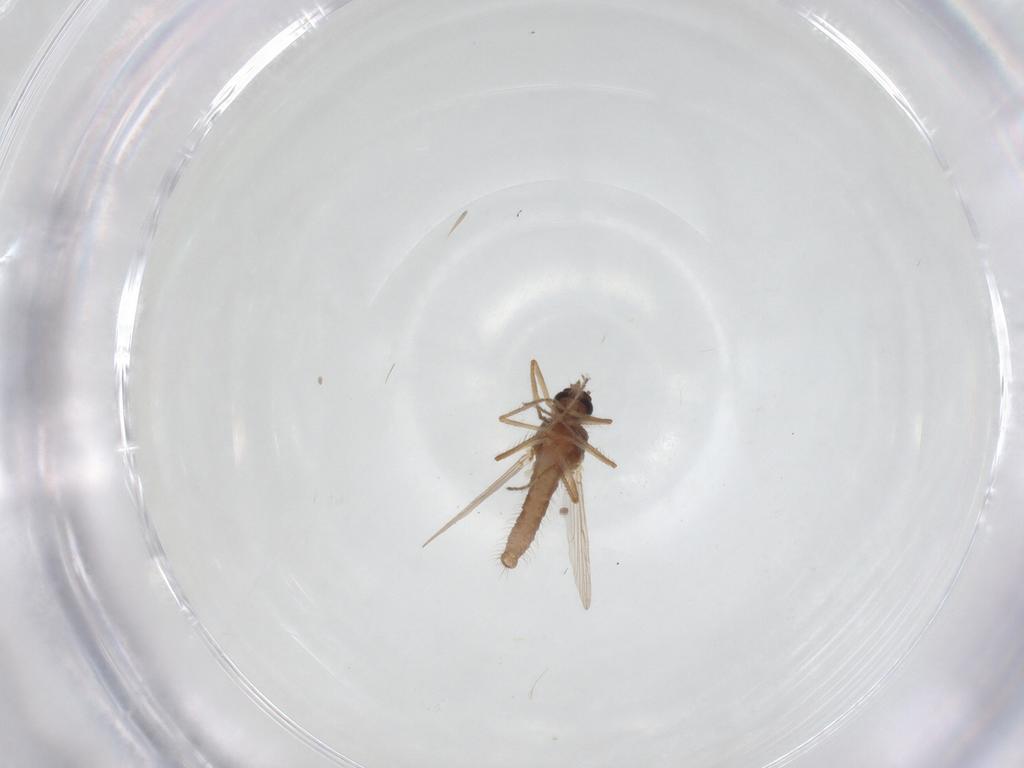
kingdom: Animalia
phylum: Arthropoda
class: Insecta
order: Diptera
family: Ceratopogonidae
